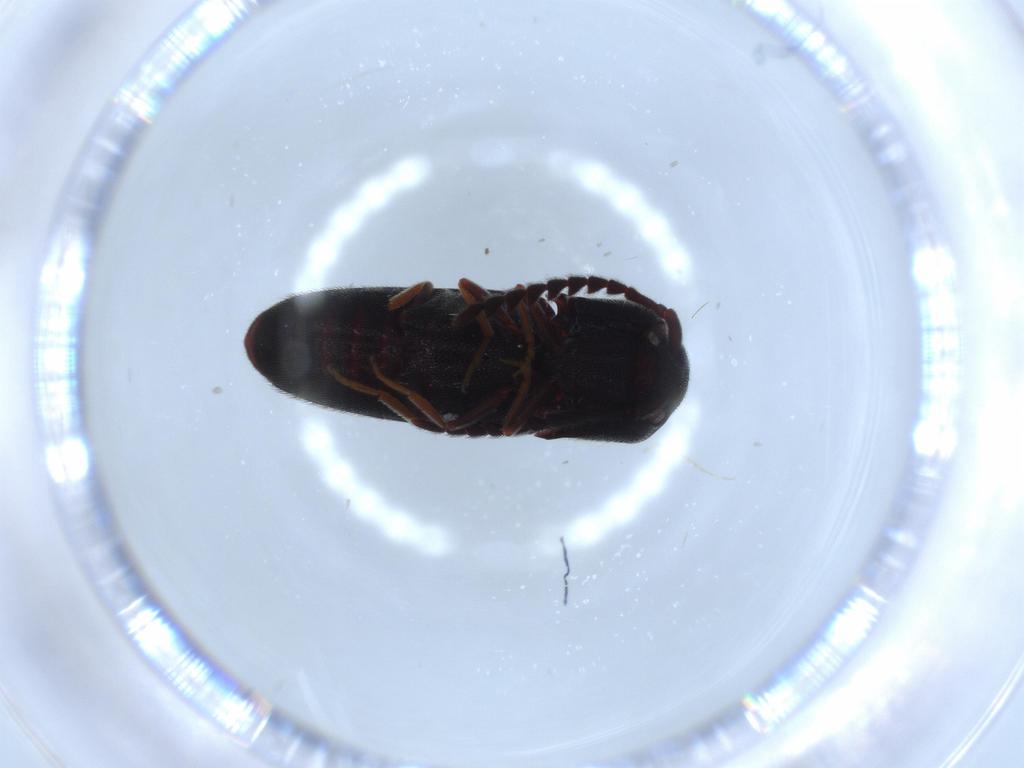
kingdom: Animalia
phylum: Arthropoda
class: Insecta
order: Coleoptera
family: Eucnemidae
